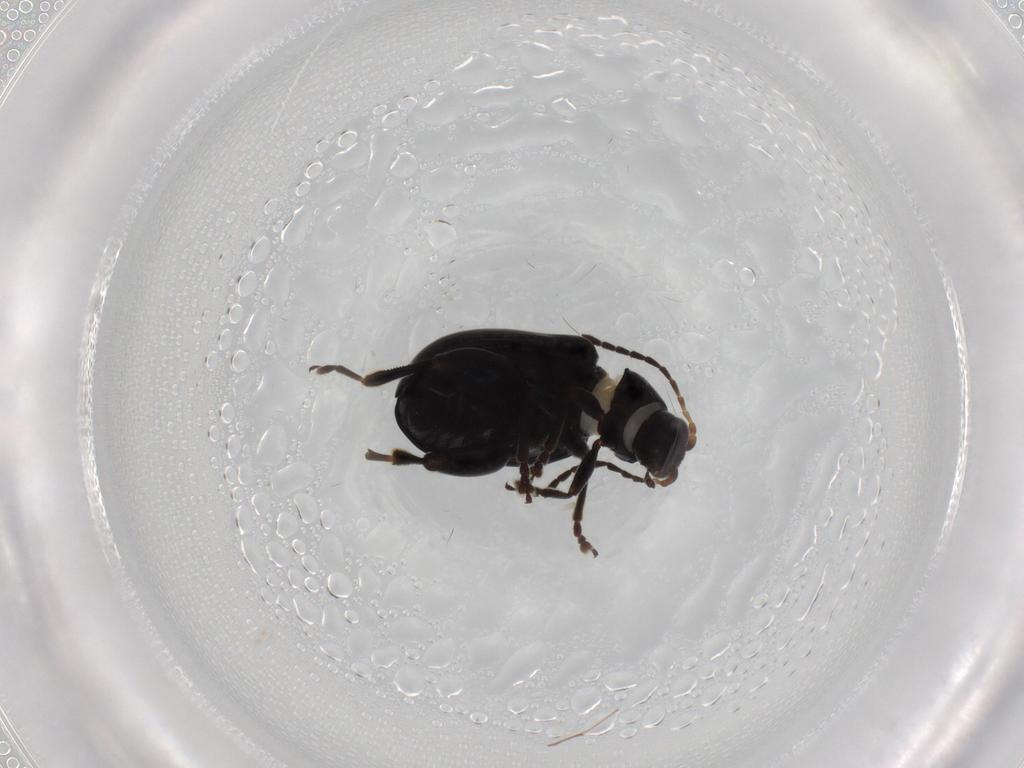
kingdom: Animalia
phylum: Arthropoda
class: Insecta
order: Coleoptera
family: Chrysomelidae
